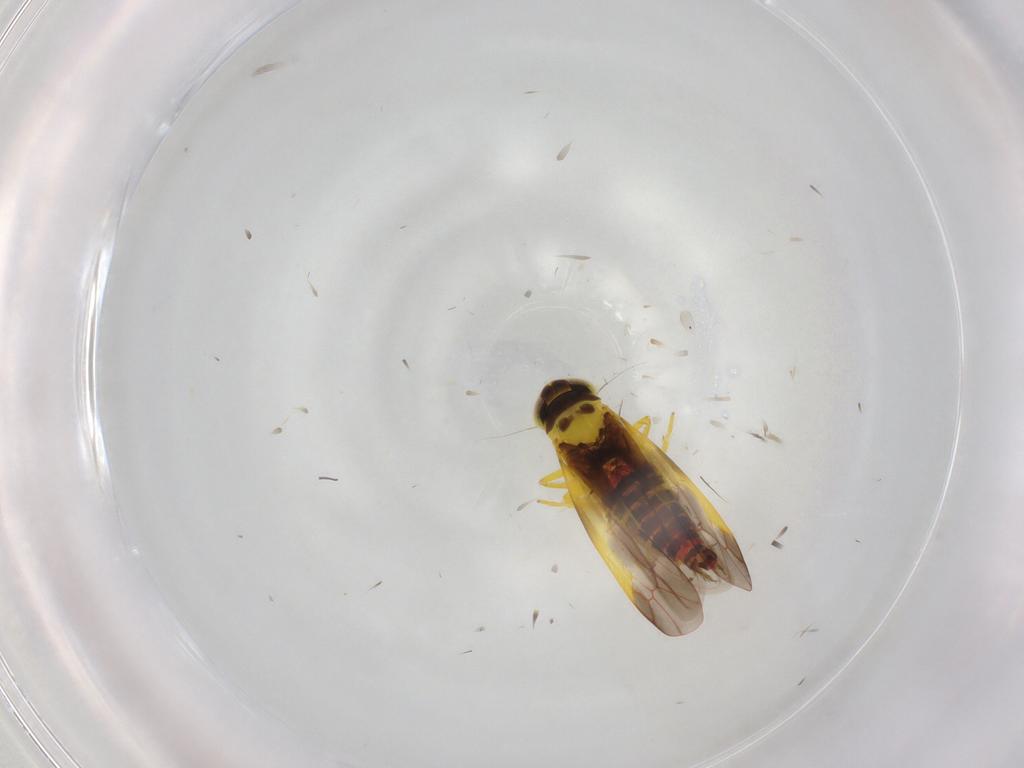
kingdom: Animalia
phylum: Arthropoda
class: Insecta
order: Hemiptera
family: Cicadellidae
